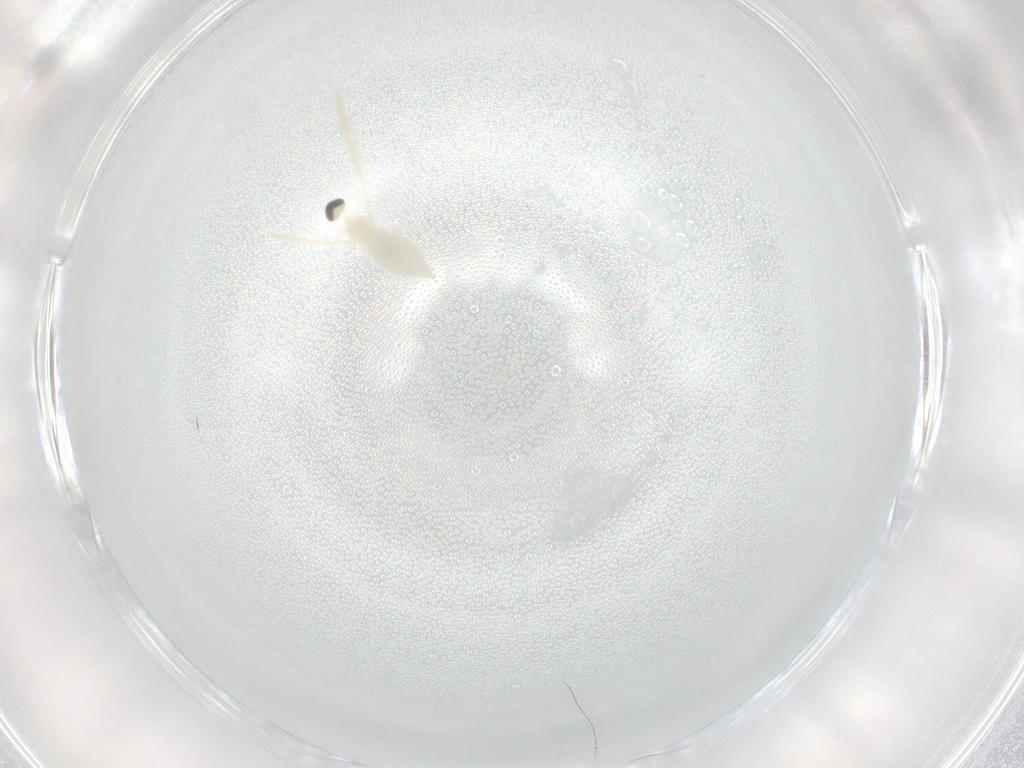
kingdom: Animalia
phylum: Arthropoda
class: Insecta
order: Diptera
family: Cecidomyiidae
